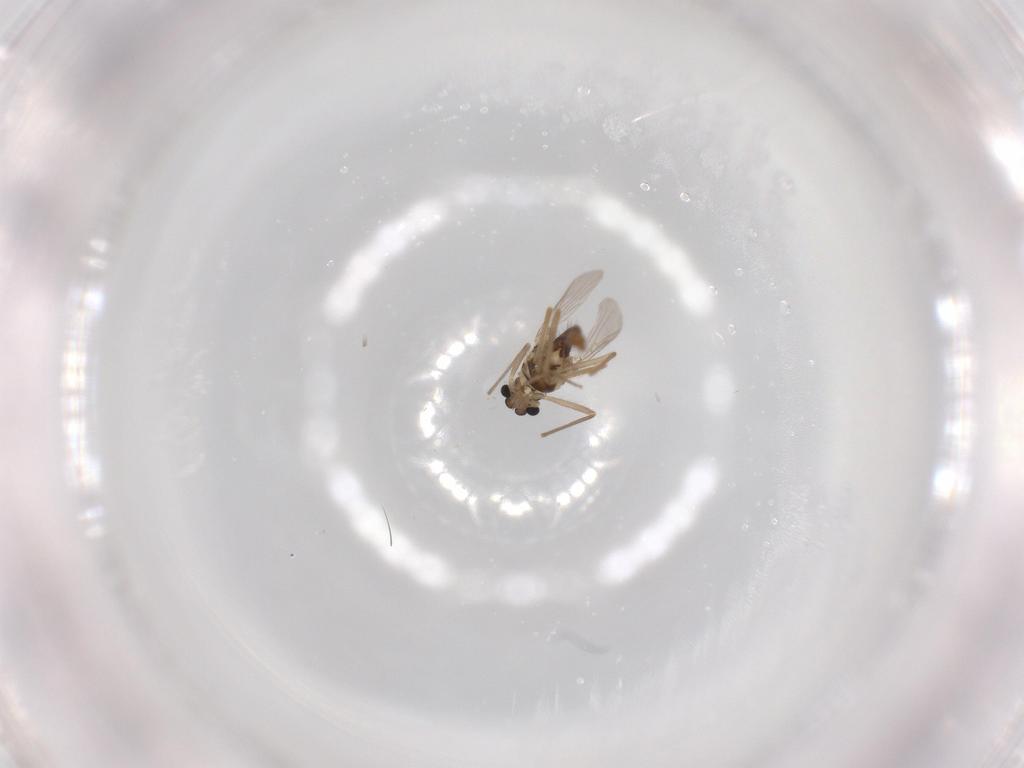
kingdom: Animalia
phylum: Arthropoda
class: Insecta
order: Diptera
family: Chironomidae
